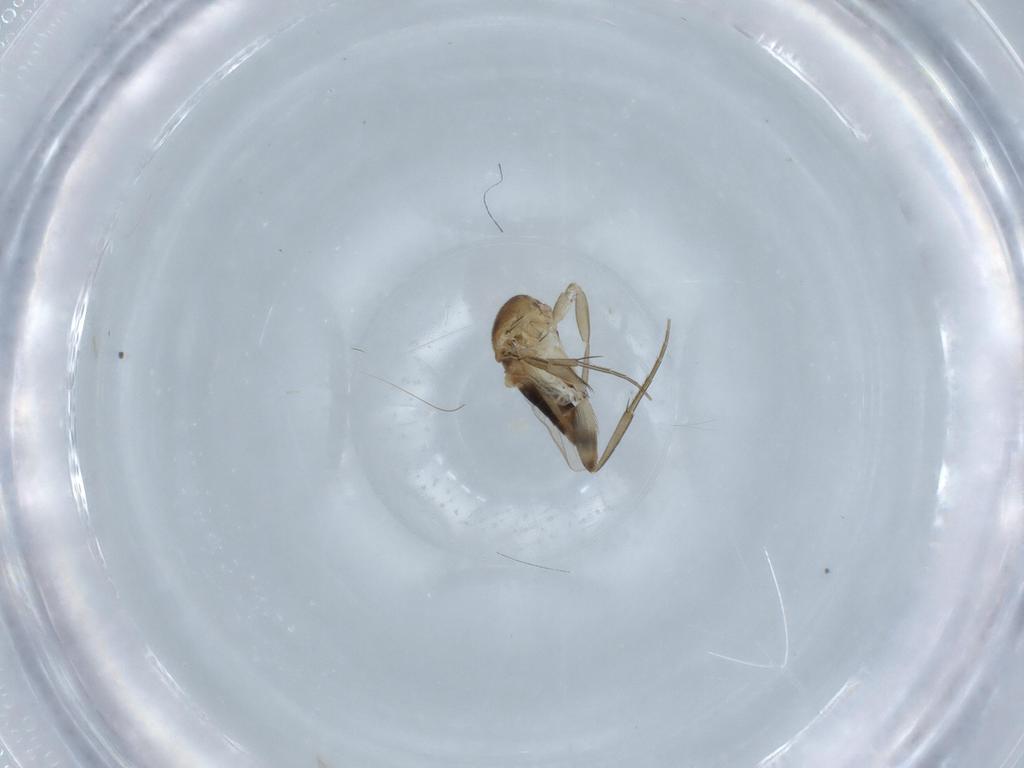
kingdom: Animalia
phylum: Arthropoda
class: Insecta
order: Diptera
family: Phoridae
